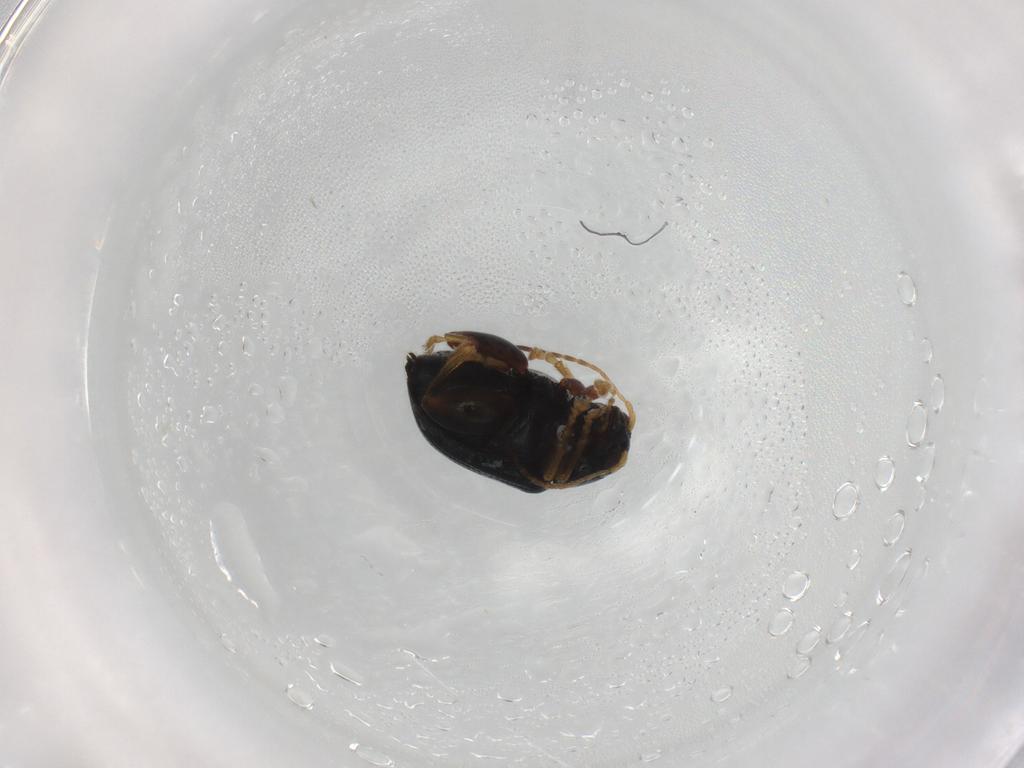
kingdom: Animalia
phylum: Arthropoda
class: Insecta
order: Coleoptera
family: Chrysomelidae
